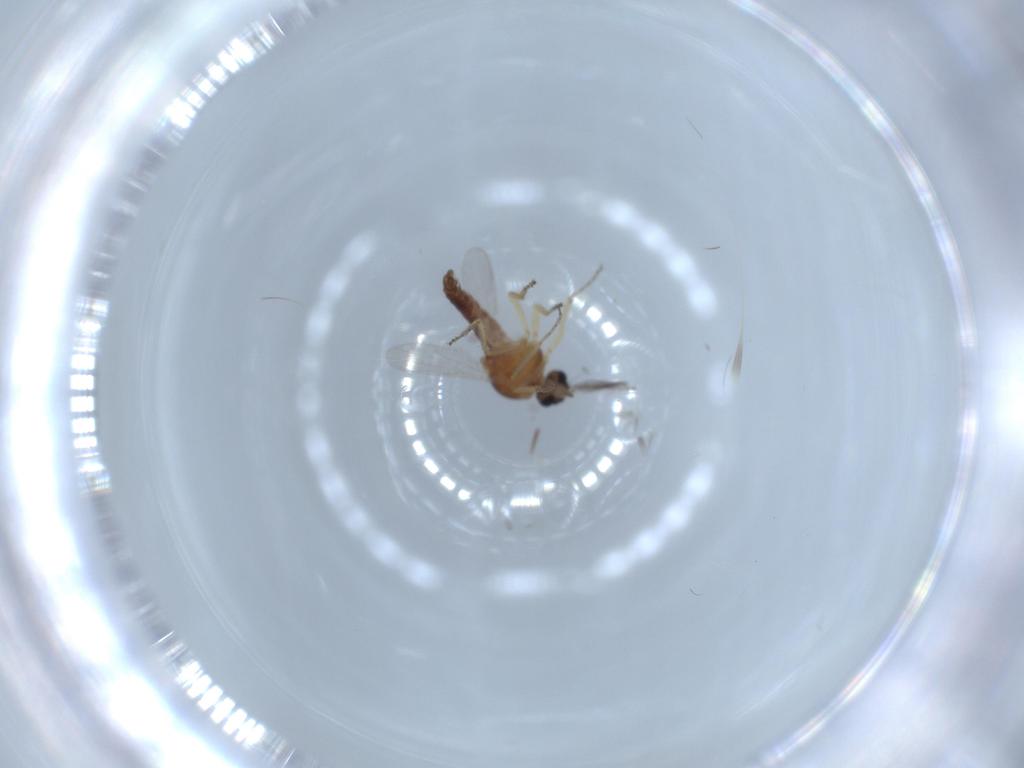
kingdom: Animalia
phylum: Arthropoda
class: Insecta
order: Diptera
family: Ceratopogonidae
